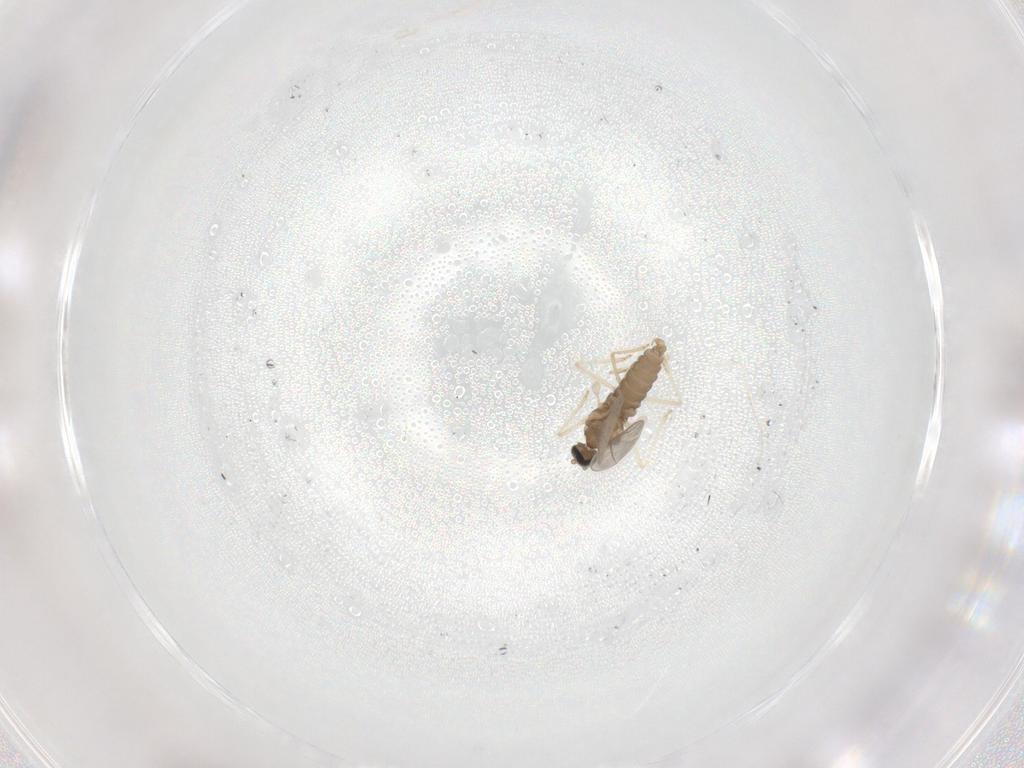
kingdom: Animalia
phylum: Arthropoda
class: Insecta
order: Diptera
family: Cecidomyiidae
